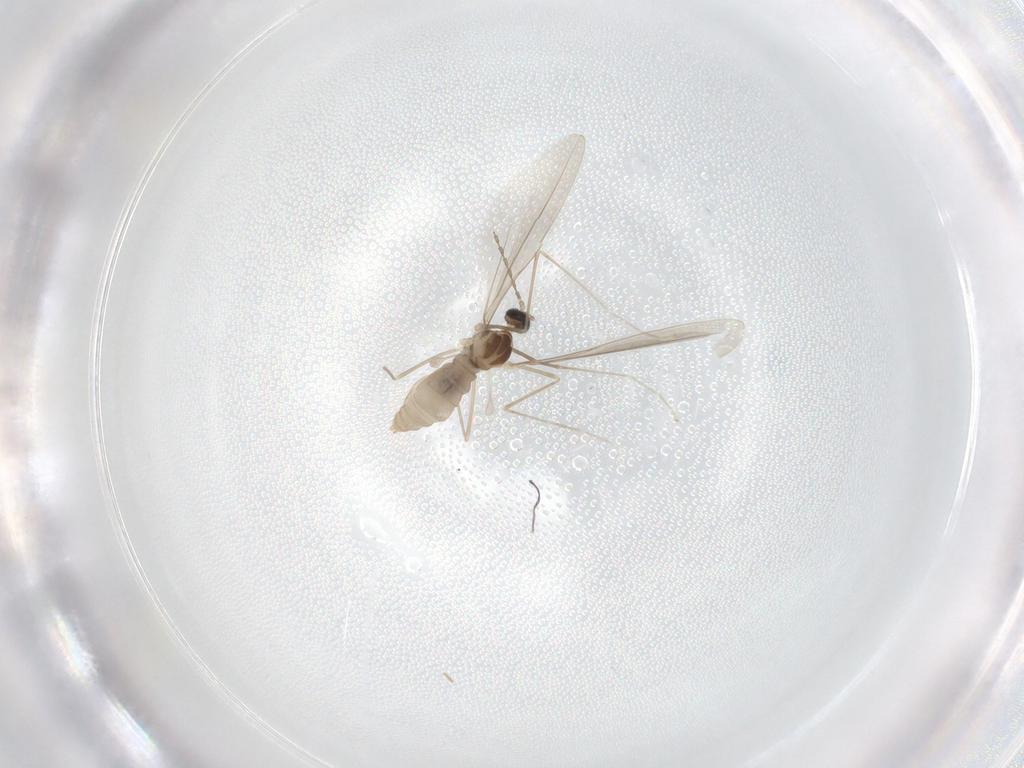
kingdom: Animalia
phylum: Arthropoda
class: Insecta
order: Diptera
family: Cecidomyiidae
